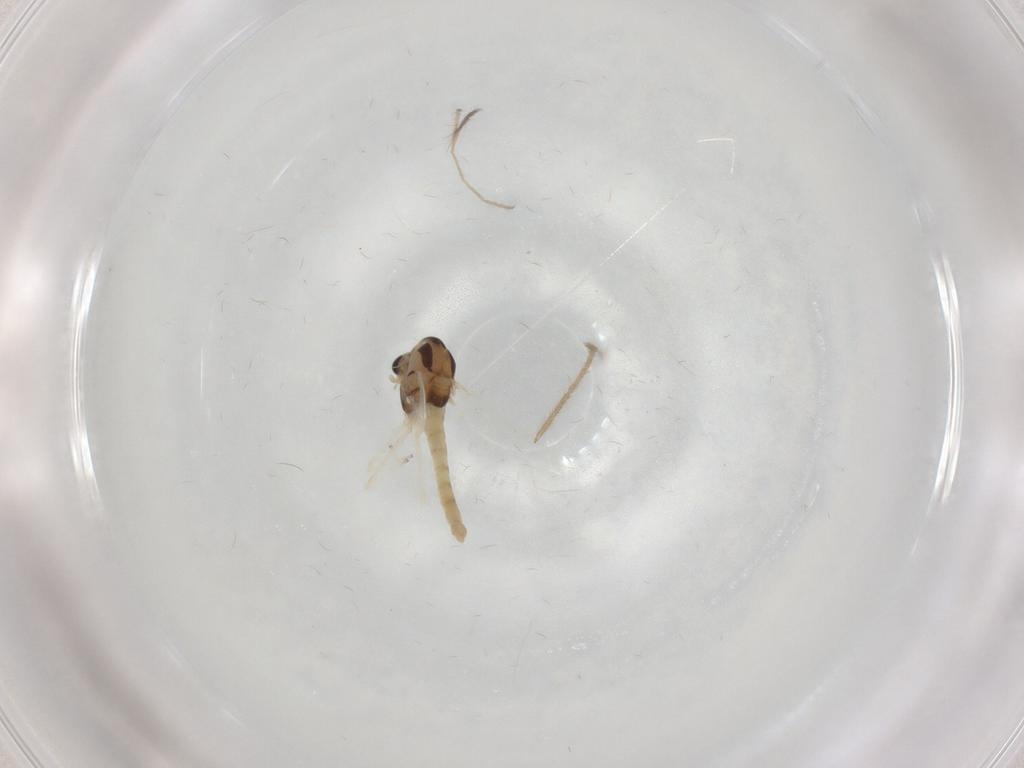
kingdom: Animalia
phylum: Arthropoda
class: Insecta
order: Diptera
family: Chironomidae
